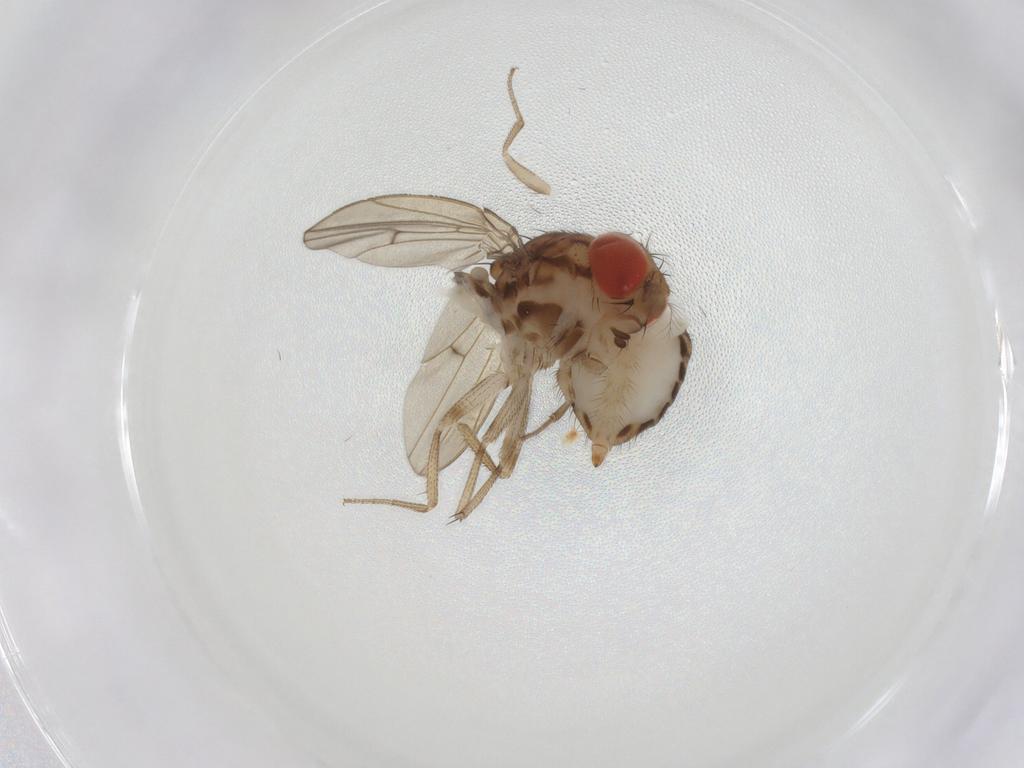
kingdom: Animalia
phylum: Arthropoda
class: Insecta
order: Diptera
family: Drosophilidae
